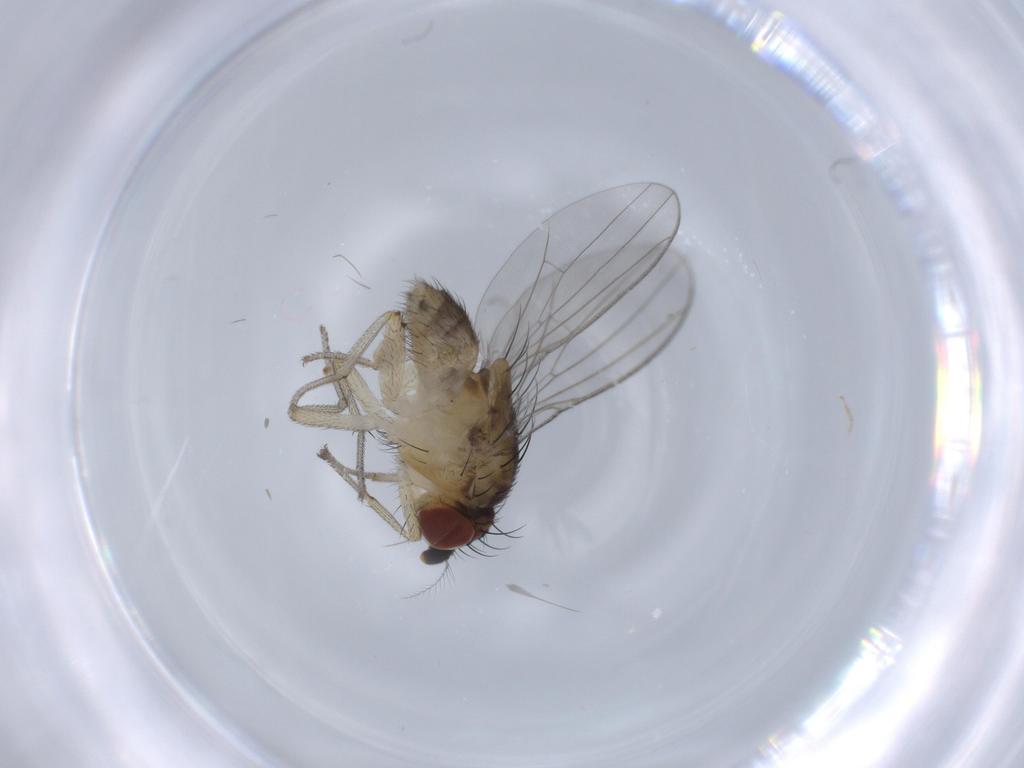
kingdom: Animalia
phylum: Arthropoda
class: Insecta
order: Diptera
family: Lauxaniidae
